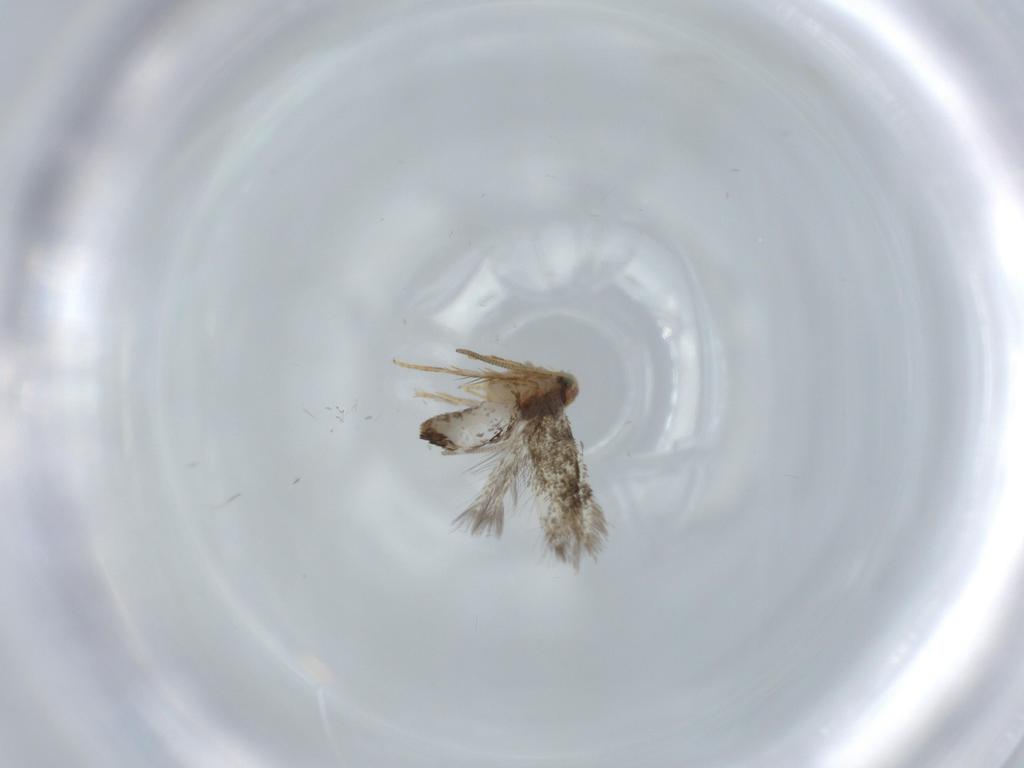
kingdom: Animalia
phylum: Arthropoda
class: Insecta
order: Lepidoptera
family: Nepticulidae
